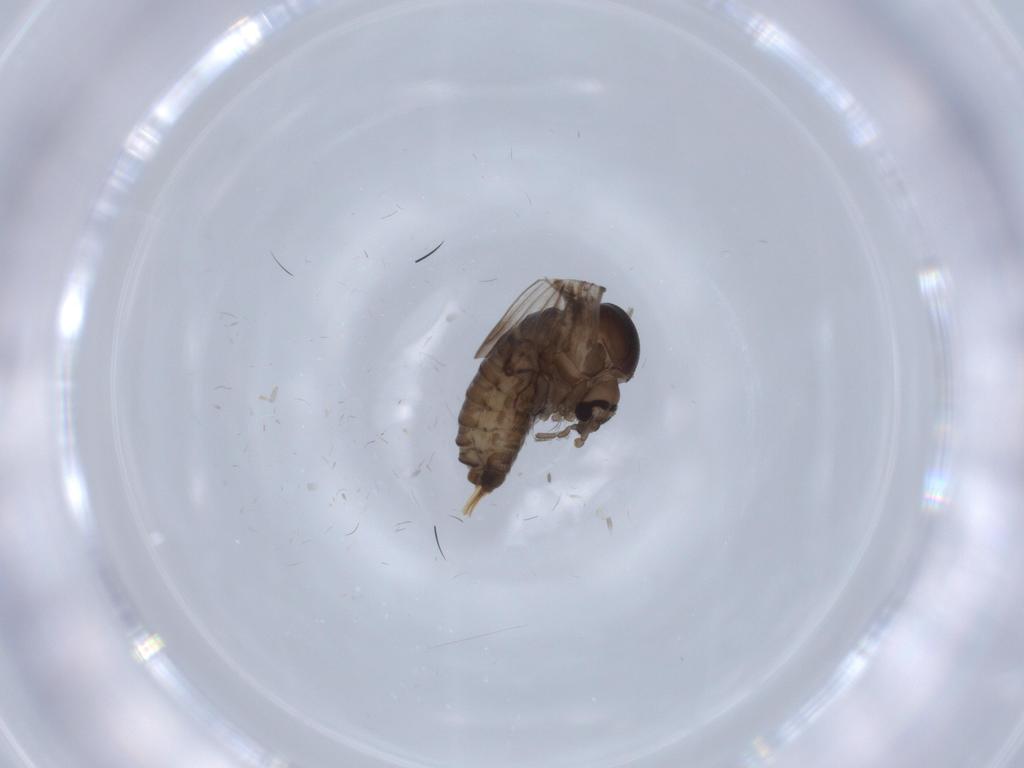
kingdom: Animalia
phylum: Arthropoda
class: Insecta
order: Diptera
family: Psychodidae
